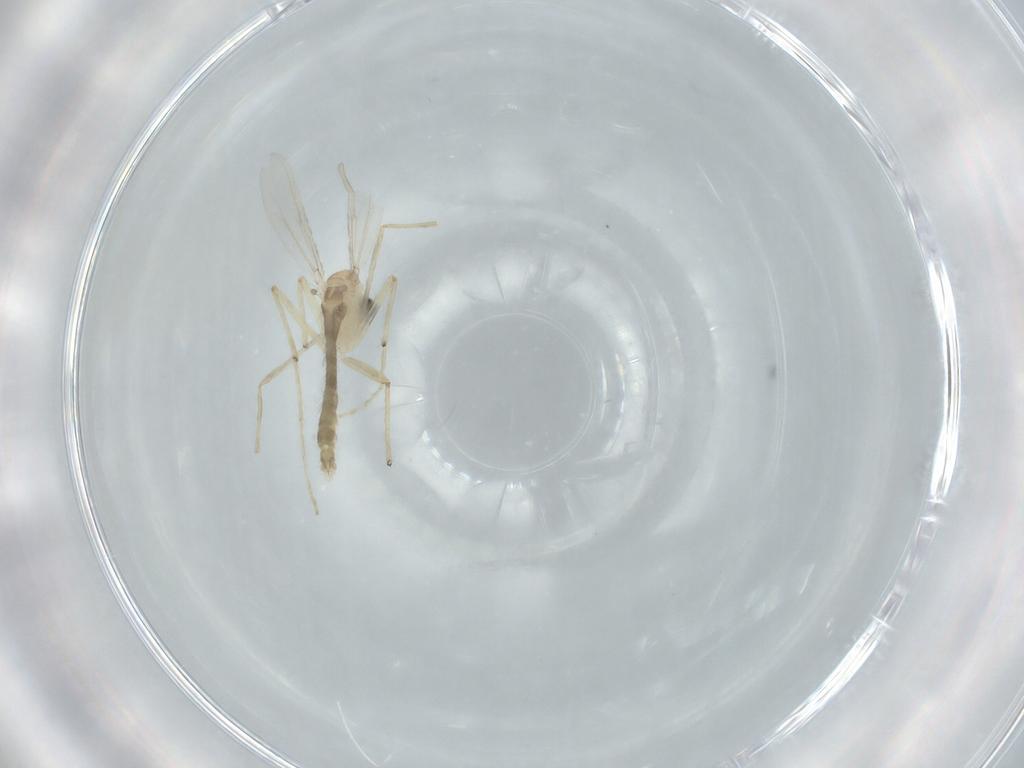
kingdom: Animalia
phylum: Arthropoda
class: Insecta
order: Diptera
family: Chironomidae
